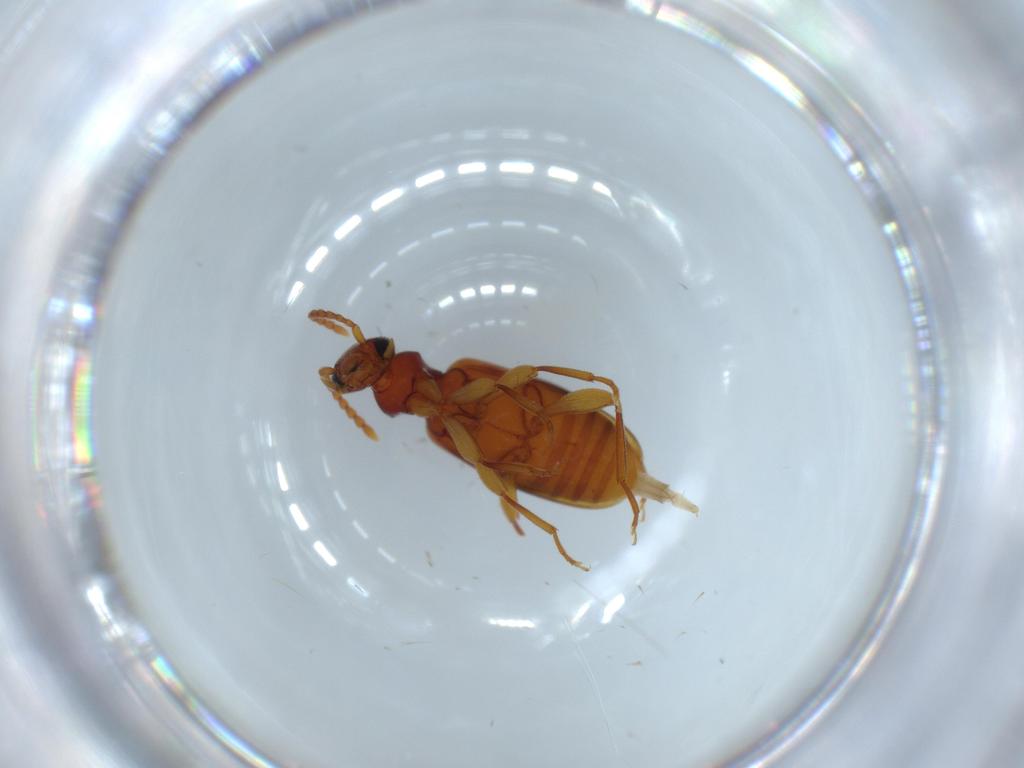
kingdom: Animalia
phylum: Arthropoda
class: Insecta
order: Coleoptera
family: Anthicidae
